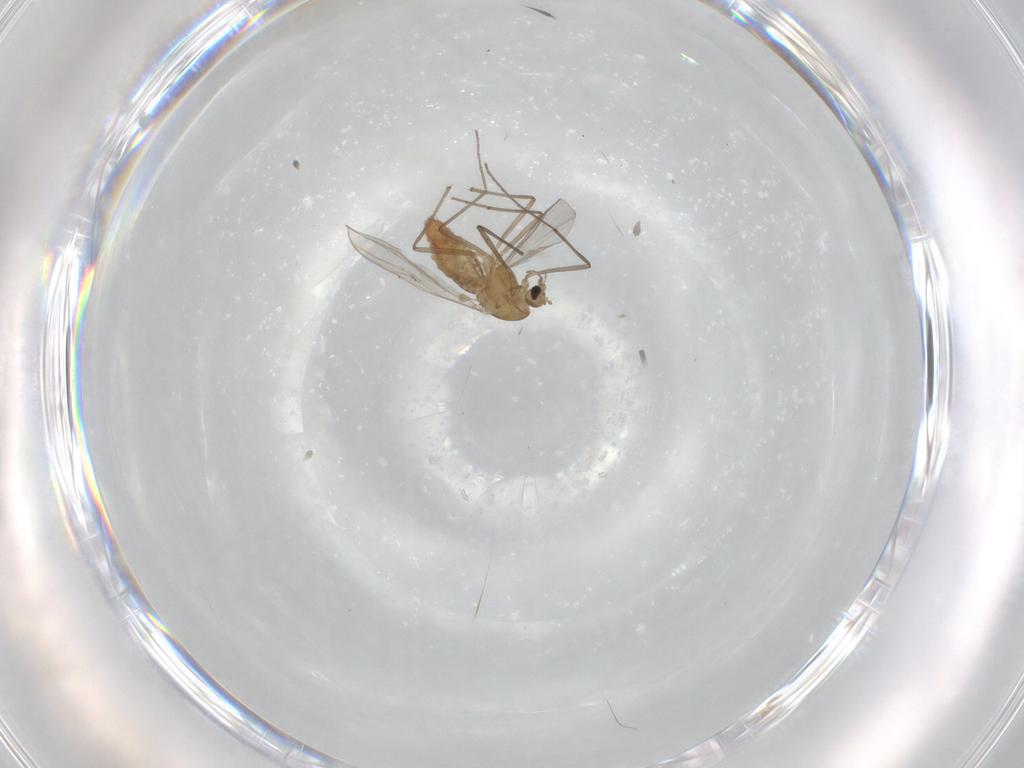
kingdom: Animalia
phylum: Arthropoda
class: Insecta
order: Diptera
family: Chironomidae
